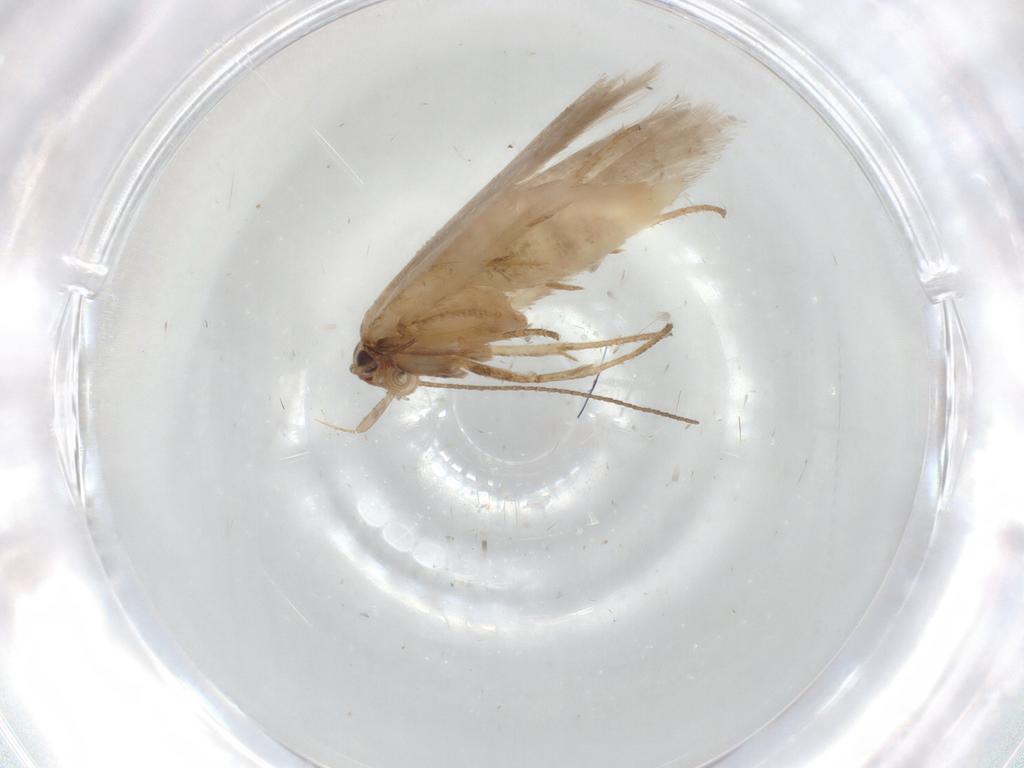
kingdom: Animalia
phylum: Arthropoda
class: Insecta
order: Lepidoptera
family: Gelechiidae
